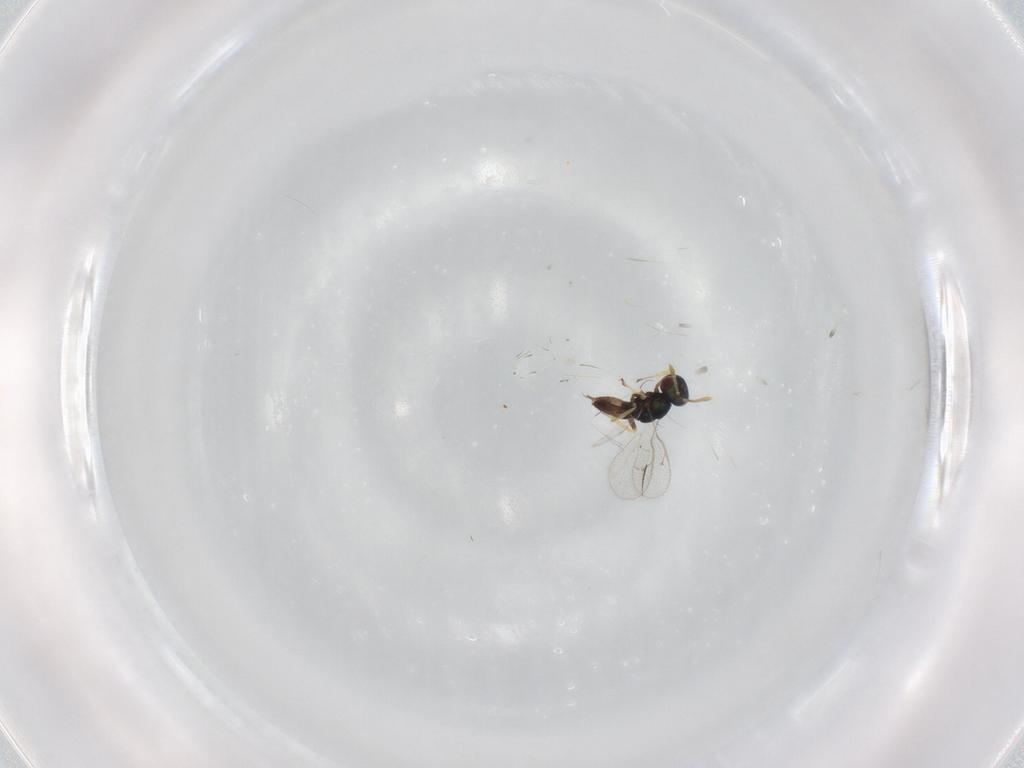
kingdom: Animalia
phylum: Arthropoda
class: Insecta
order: Hymenoptera
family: Pteromalidae
